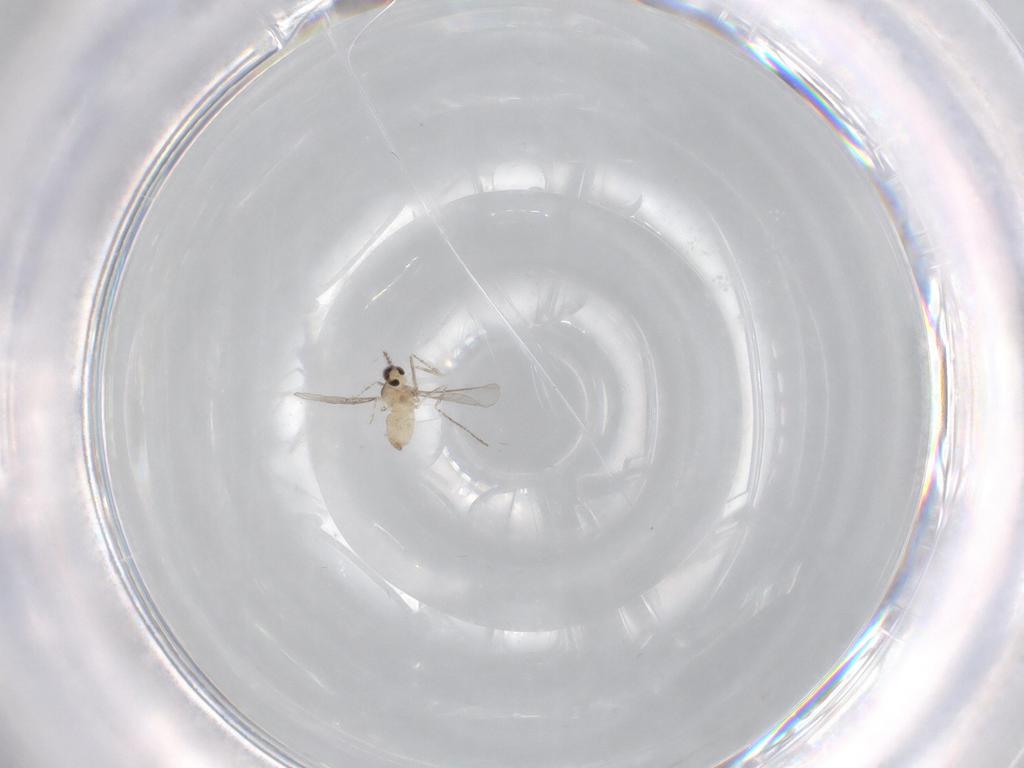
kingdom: Animalia
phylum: Arthropoda
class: Insecta
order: Diptera
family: Cecidomyiidae
